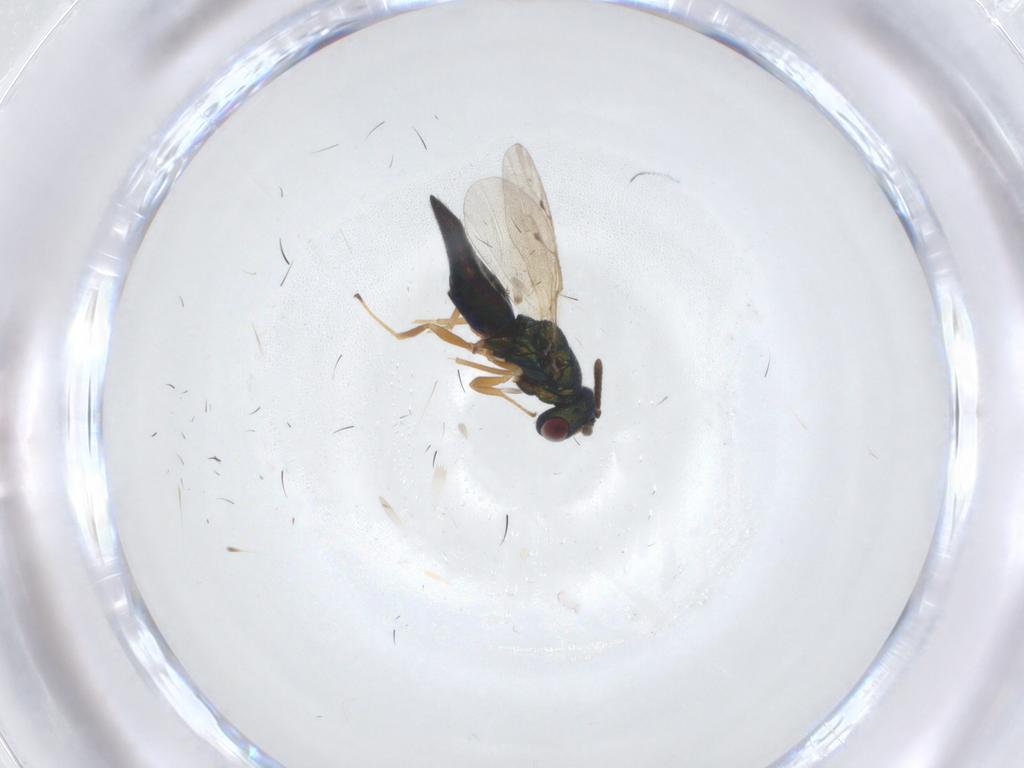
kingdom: Animalia
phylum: Arthropoda
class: Insecta
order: Hymenoptera
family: Pteromalidae
